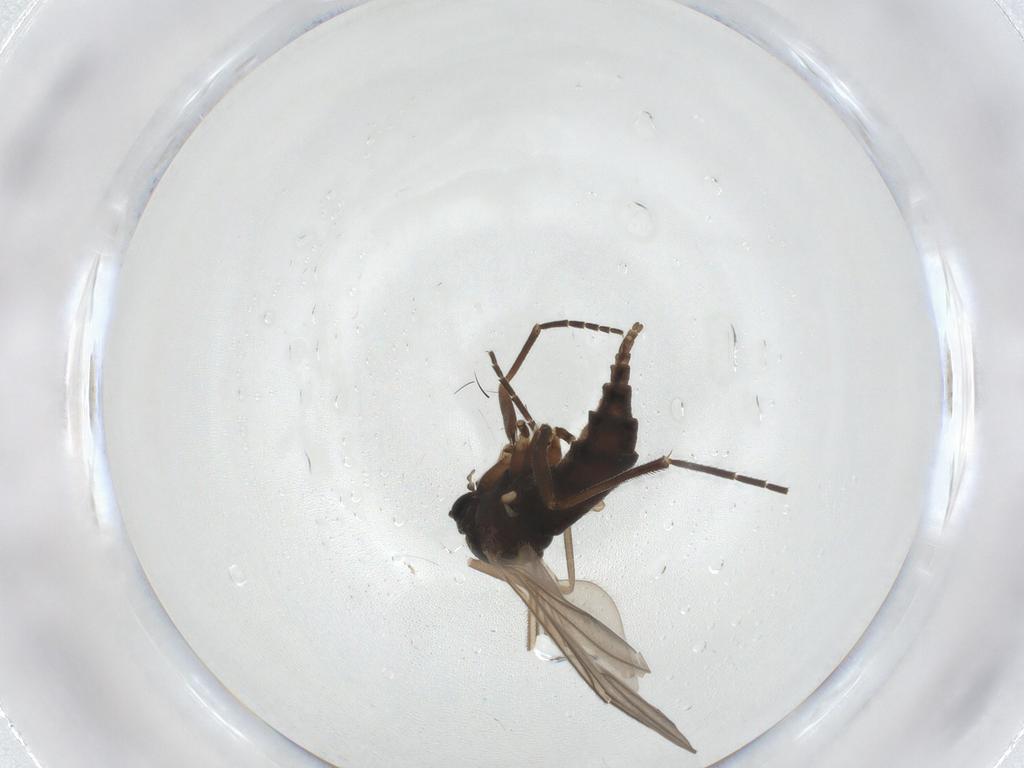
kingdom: Animalia
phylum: Arthropoda
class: Insecta
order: Diptera
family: Sciaridae
